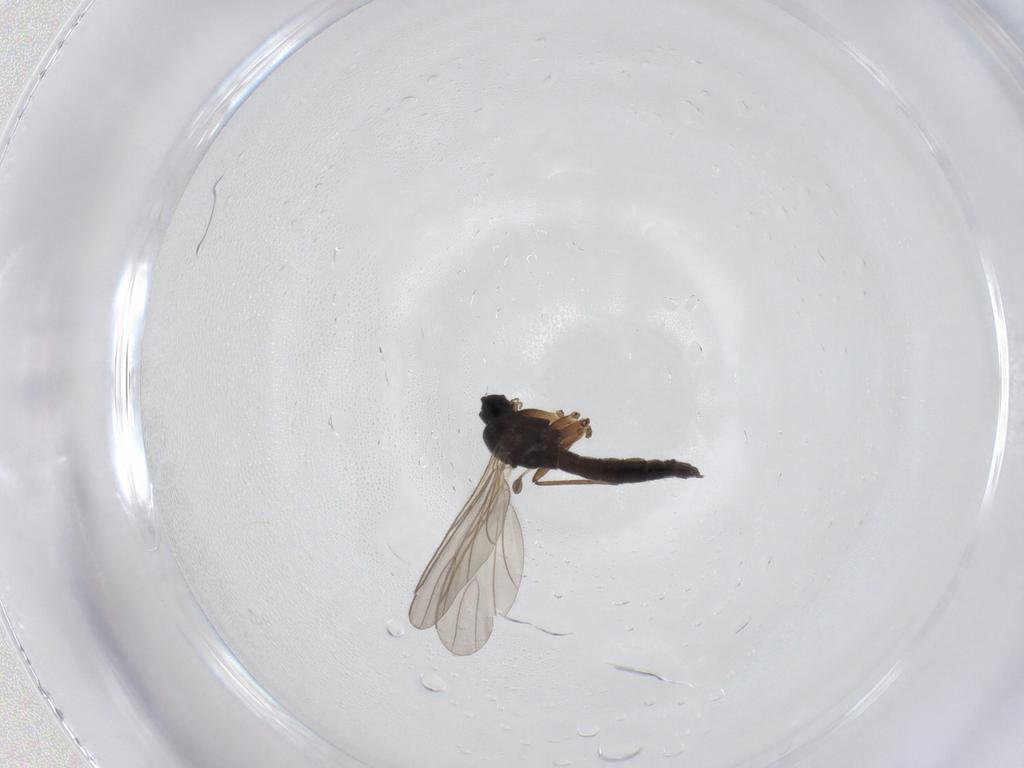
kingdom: Animalia
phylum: Arthropoda
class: Insecta
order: Diptera
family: Sciaridae
